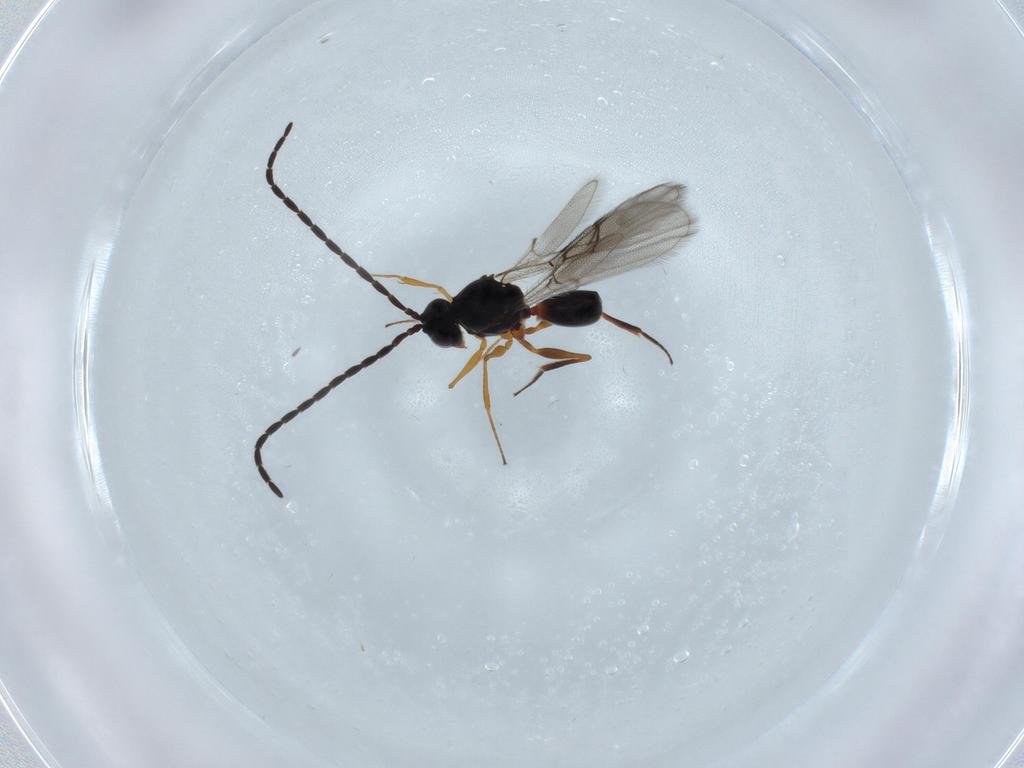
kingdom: Animalia
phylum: Arthropoda
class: Insecta
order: Hymenoptera
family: Figitidae
